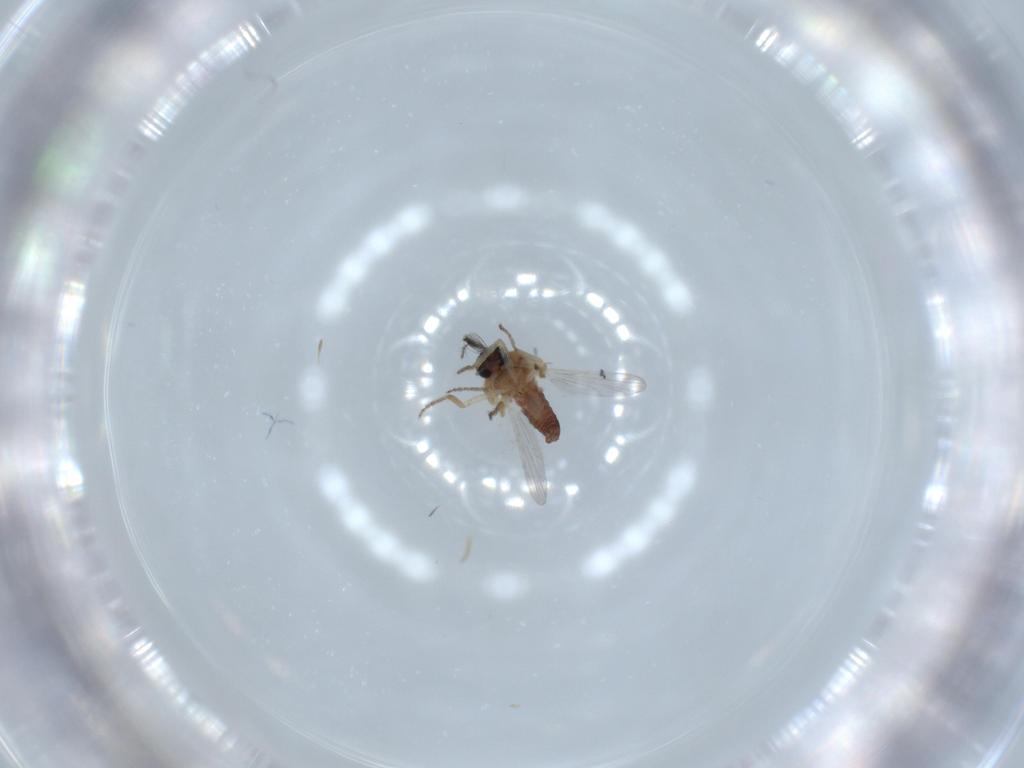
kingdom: Animalia
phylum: Arthropoda
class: Insecta
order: Diptera
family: Ceratopogonidae
